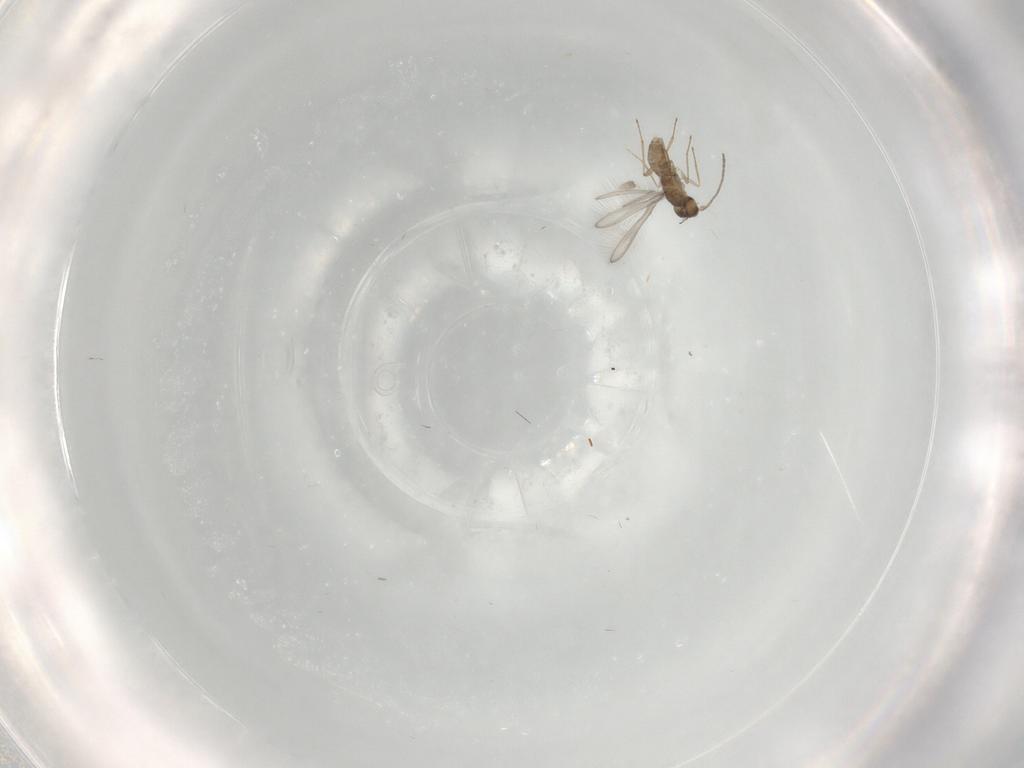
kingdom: Animalia
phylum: Arthropoda
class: Insecta
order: Hymenoptera
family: Mymaridae
